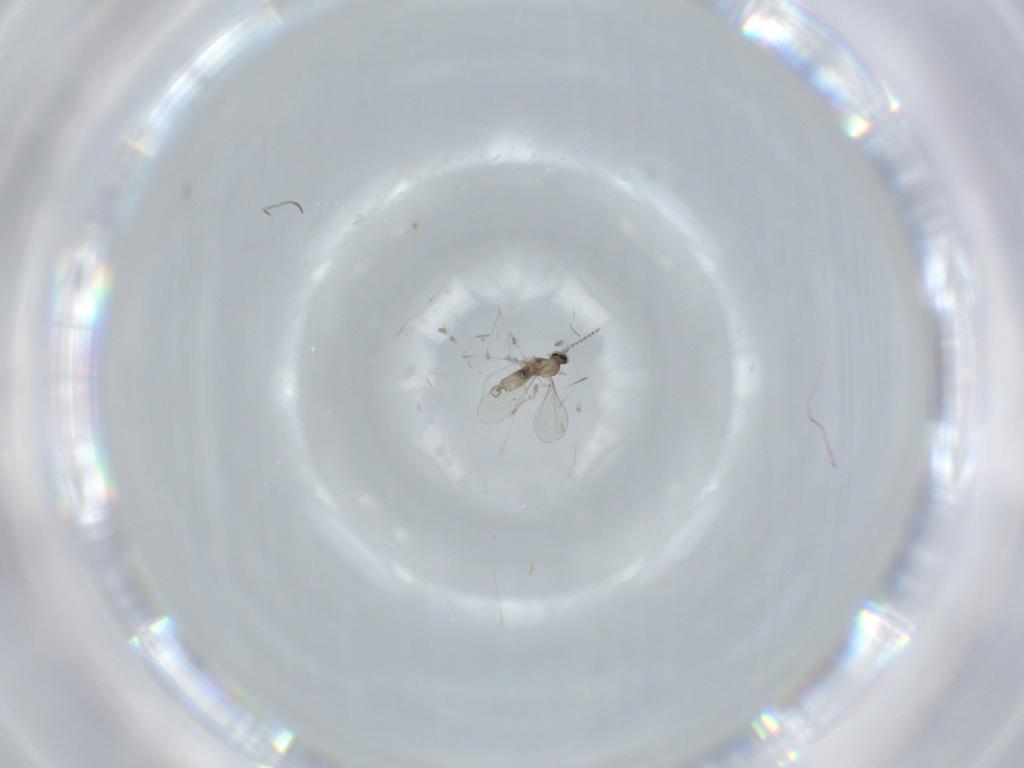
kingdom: Animalia
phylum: Arthropoda
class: Insecta
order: Diptera
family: Cecidomyiidae
